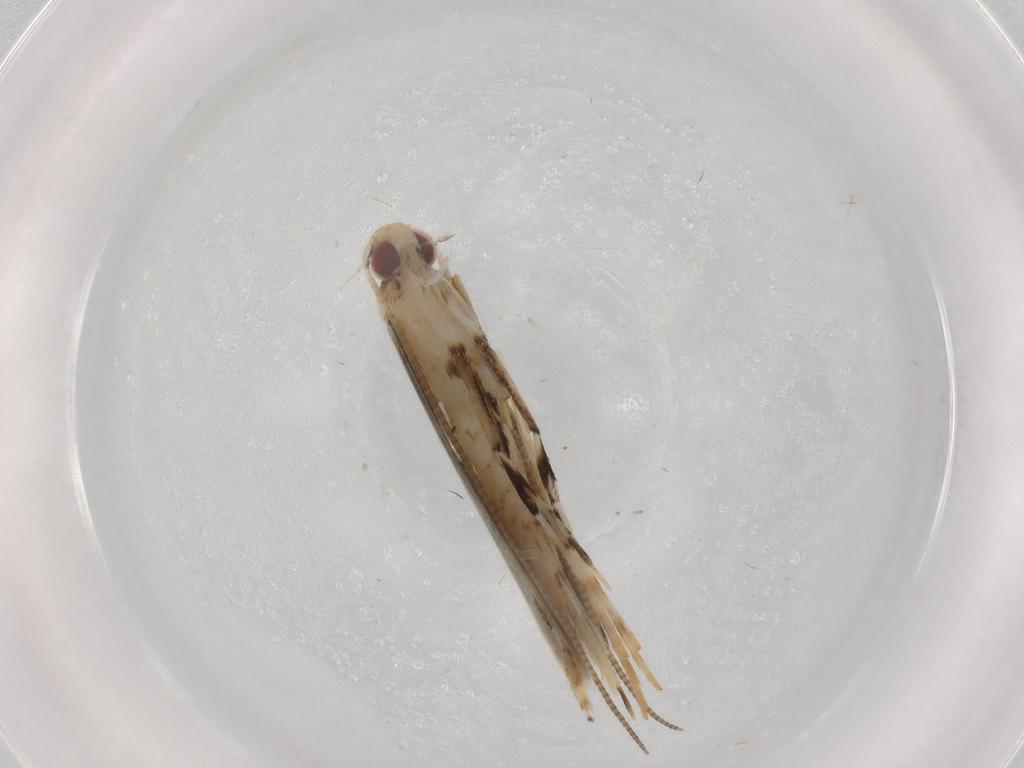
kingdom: Animalia
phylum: Arthropoda
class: Insecta
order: Lepidoptera
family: Gracillariidae
